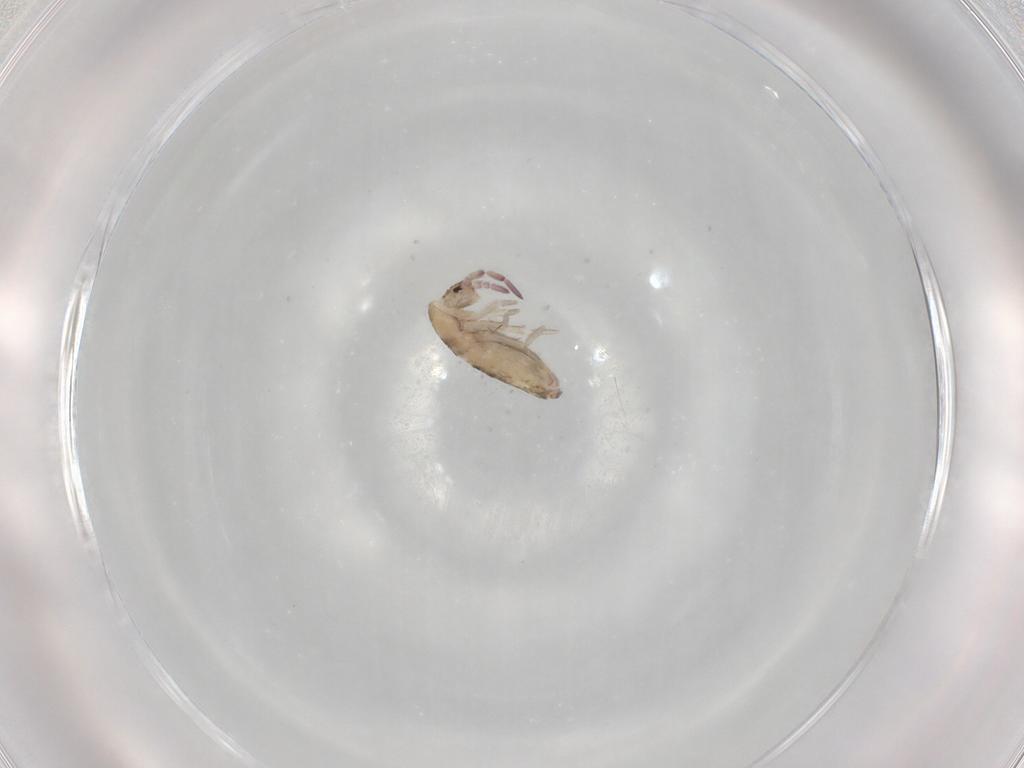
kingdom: Animalia
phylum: Arthropoda
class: Collembola
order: Entomobryomorpha
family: Entomobryidae
